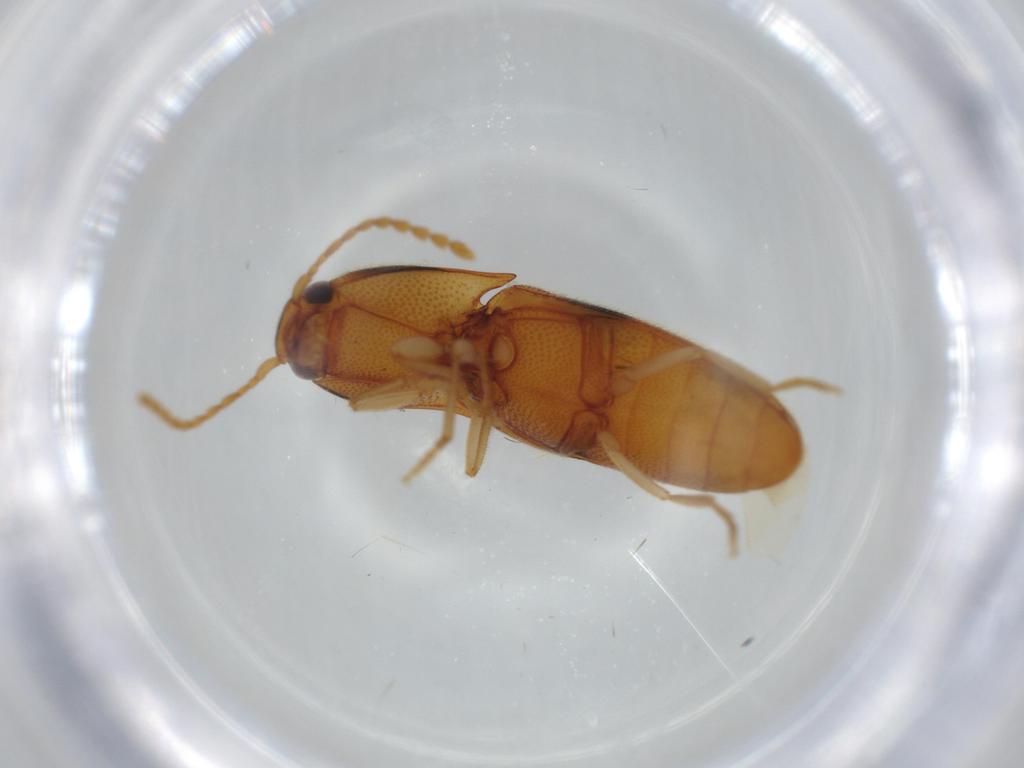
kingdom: Animalia
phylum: Arthropoda
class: Insecta
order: Coleoptera
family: Elateridae
